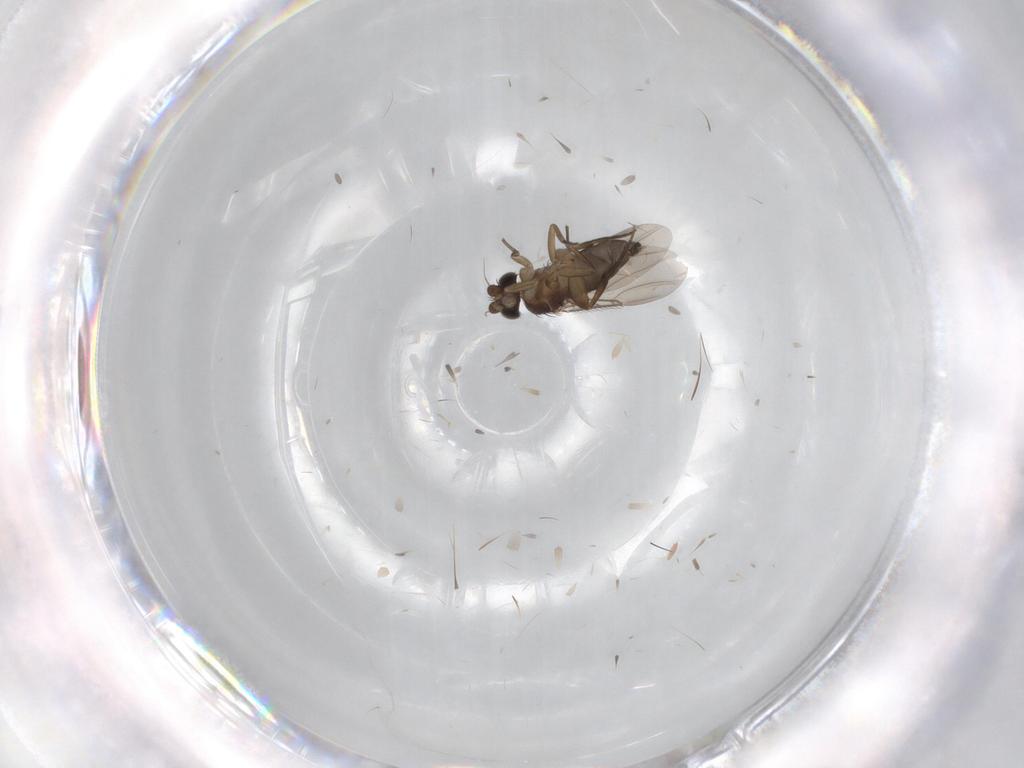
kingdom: Animalia
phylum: Arthropoda
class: Insecta
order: Diptera
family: Phoridae
